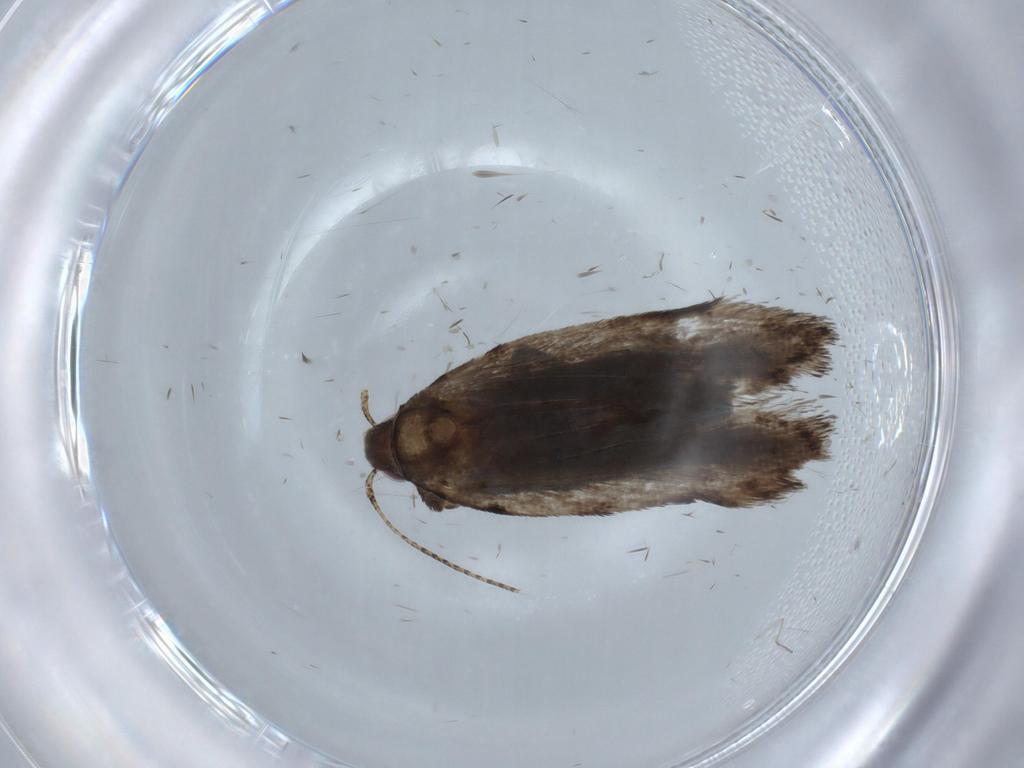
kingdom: Animalia
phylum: Arthropoda
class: Insecta
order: Lepidoptera
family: Gelechiidae
